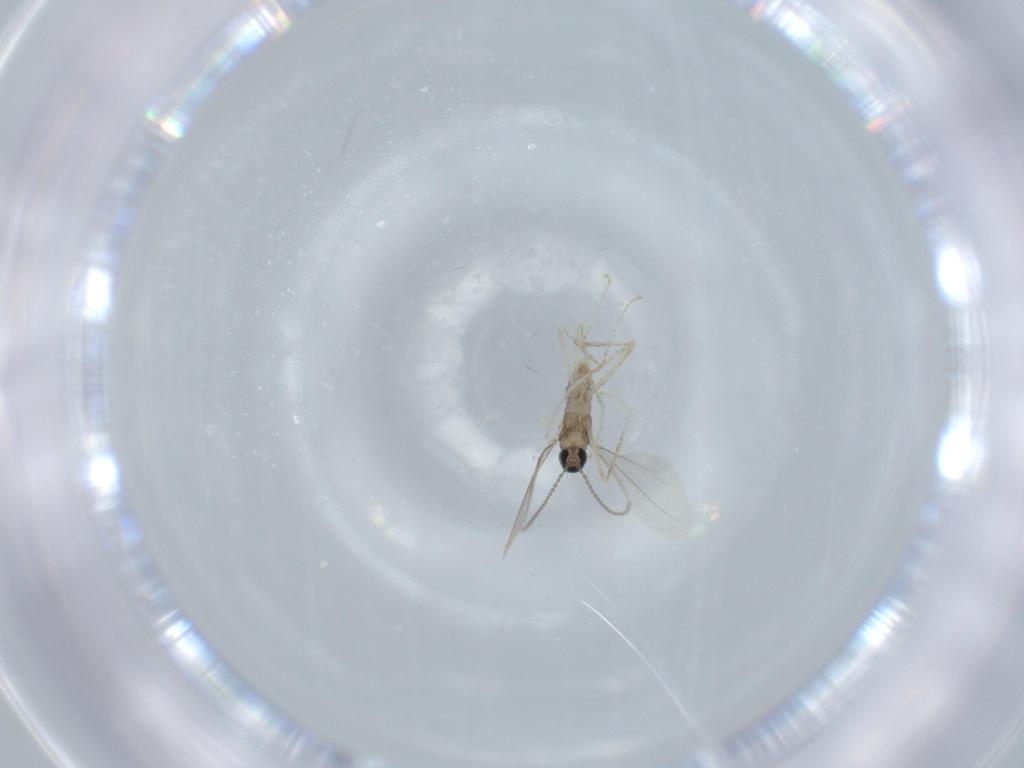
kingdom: Animalia
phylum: Arthropoda
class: Insecta
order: Diptera
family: Cecidomyiidae
